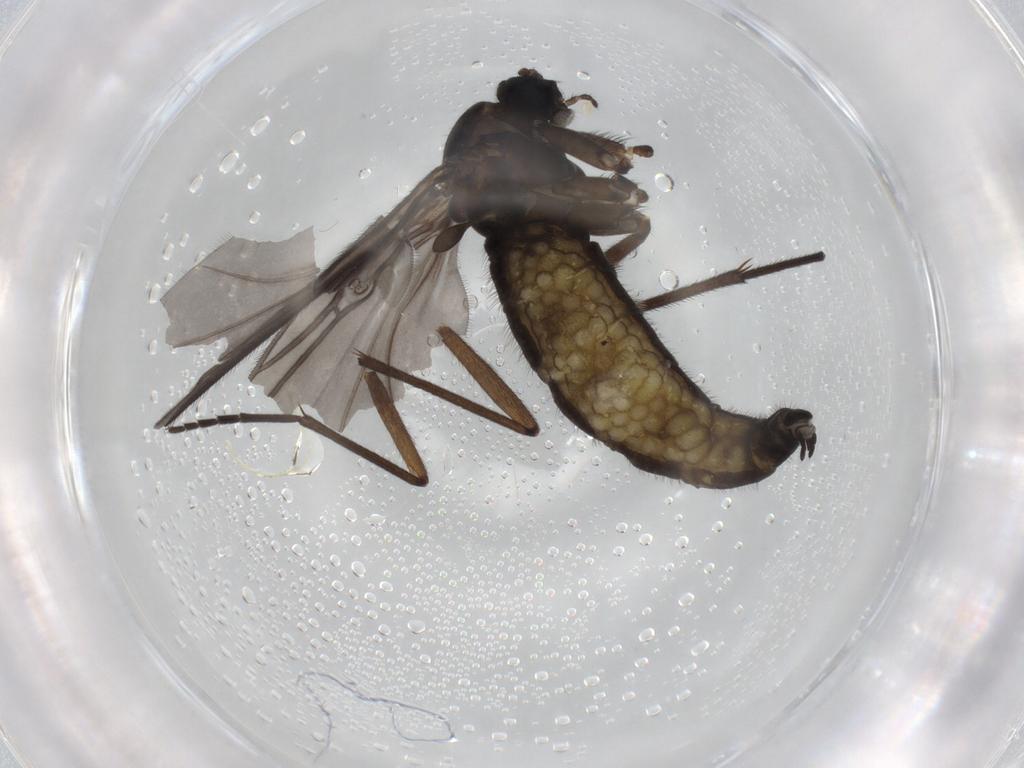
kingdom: Animalia
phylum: Arthropoda
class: Insecta
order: Diptera
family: Sciaridae
